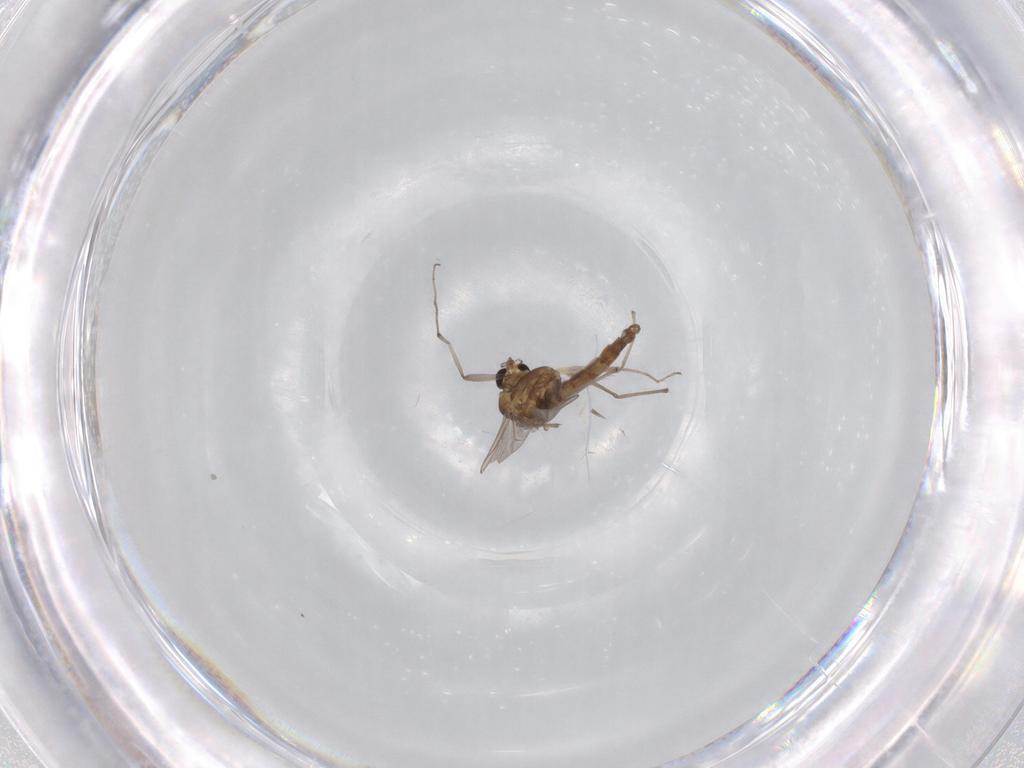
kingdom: Animalia
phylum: Arthropoda
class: Insecta
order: Diptera
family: Chironomidae
